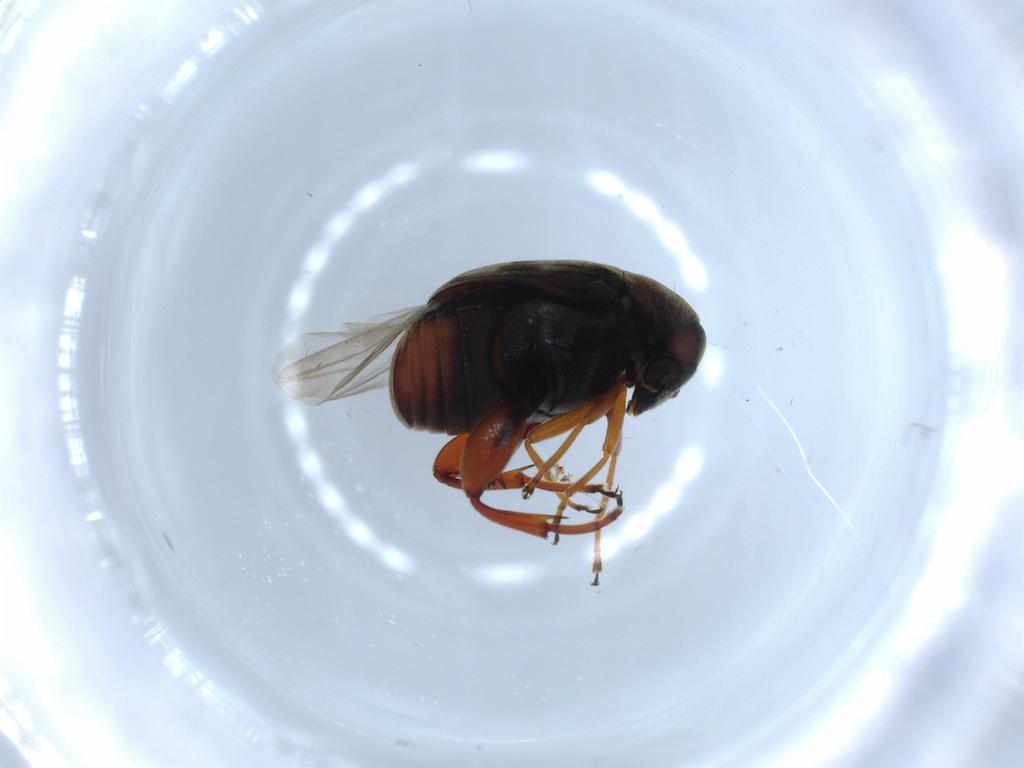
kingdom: Animalia
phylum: Arthropoda
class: Insecta
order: Coleoptera
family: Chrysomelidae
